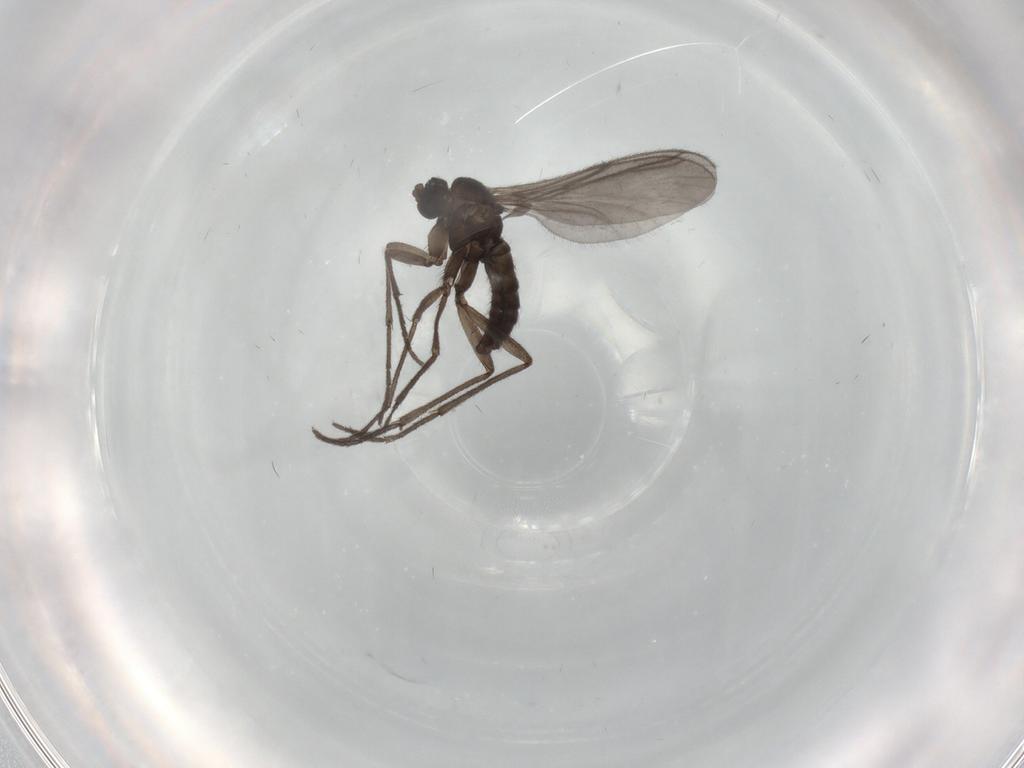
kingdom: Animalia
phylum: Arthropoda
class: Insecta
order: Diptera
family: Sciaridae
